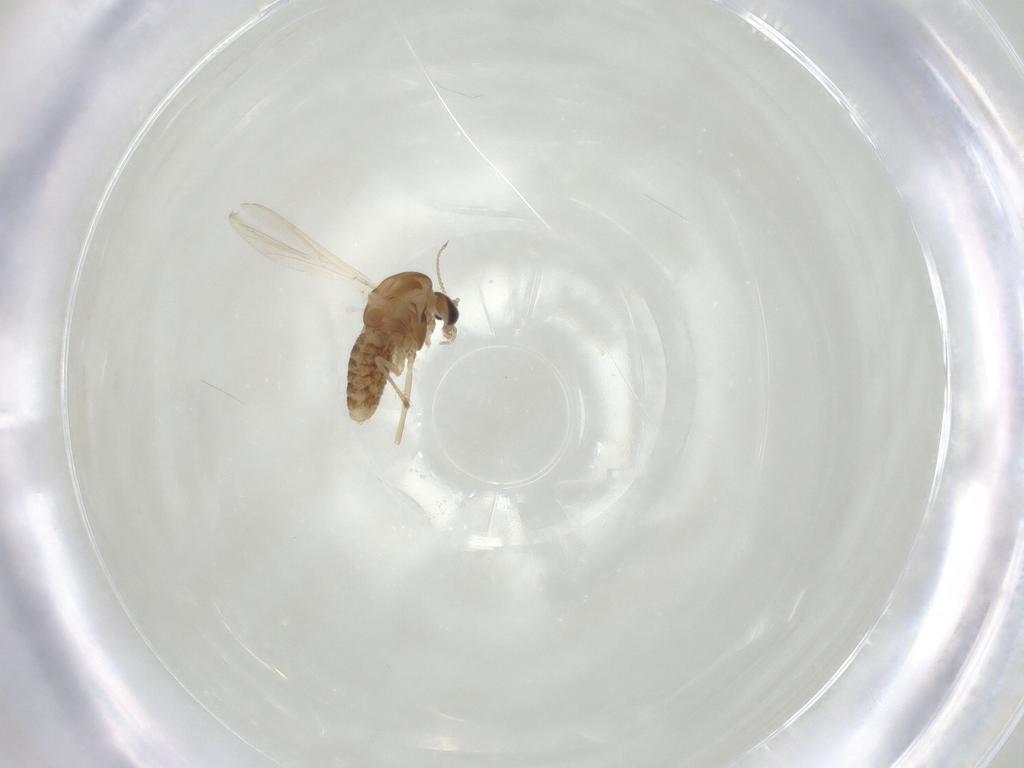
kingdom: Animalia
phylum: Arthropoda
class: Insecta
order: Diptera
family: Chironomidae
